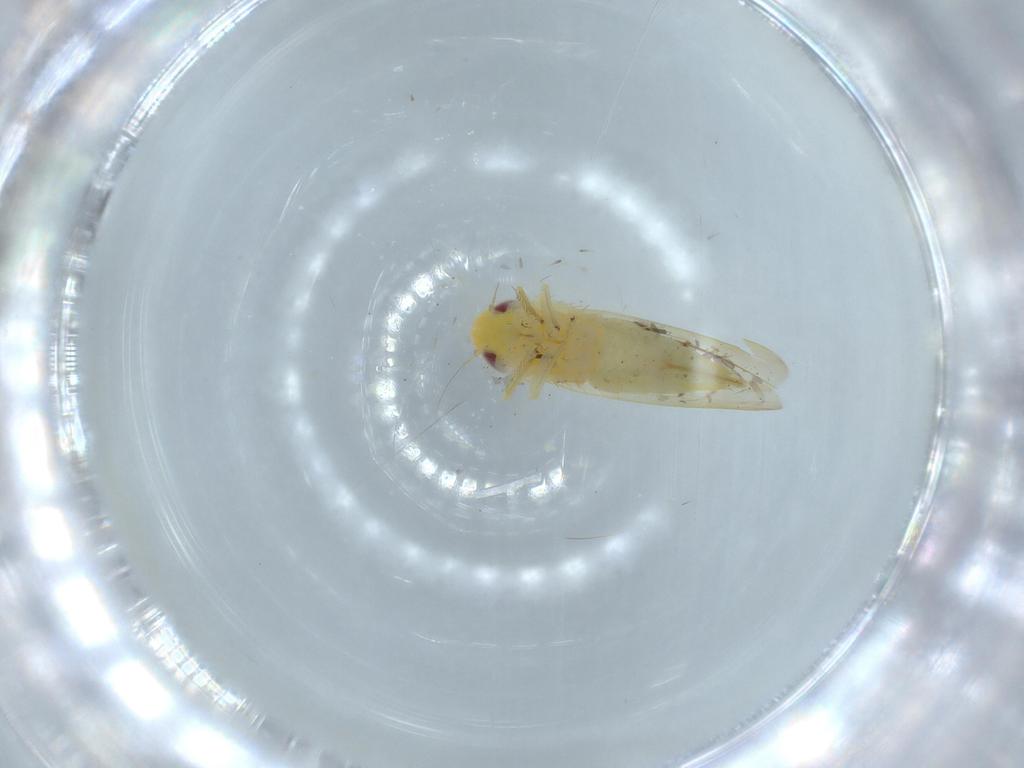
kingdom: Animalia
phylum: Arthropoda
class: Insecta
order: Hemiptera
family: Cicadellidae
